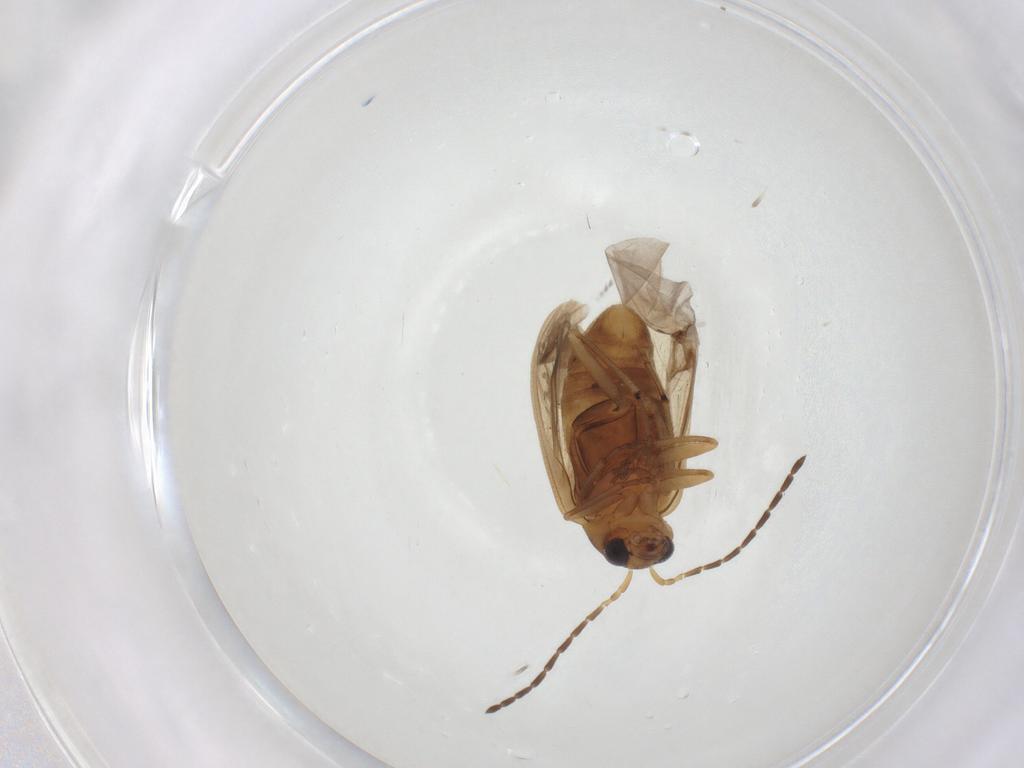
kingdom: Animalia
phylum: Arthropoda
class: Insecta
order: Coleoptera
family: Chrysomelidae
